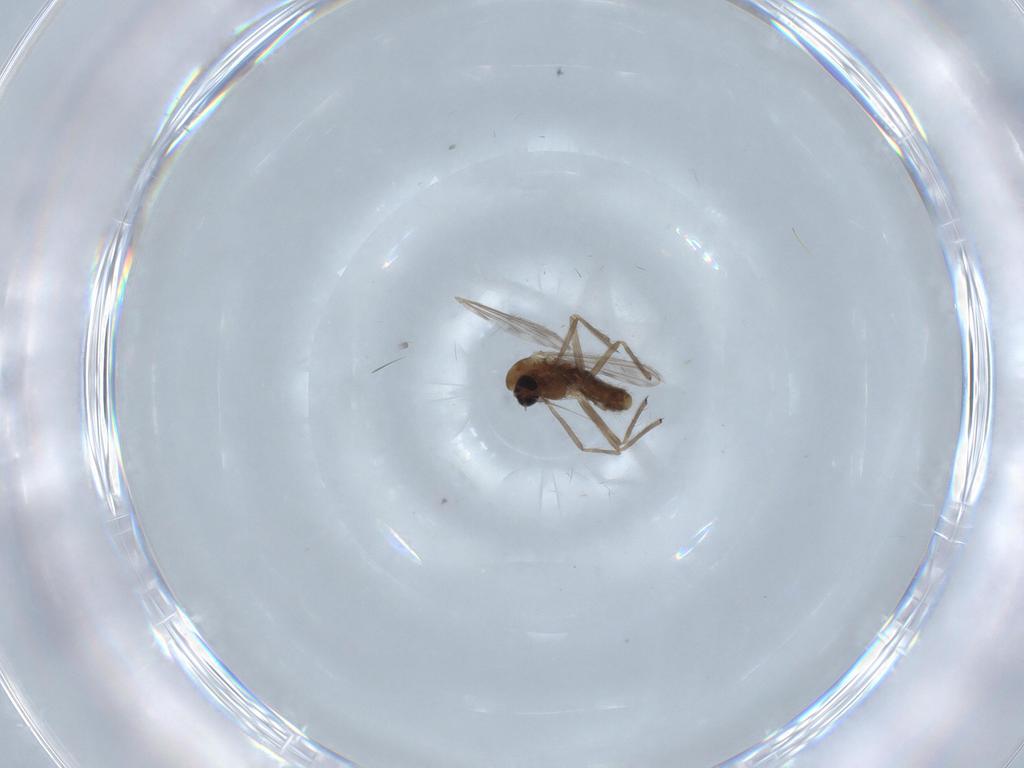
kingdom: Animalia
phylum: Arthropoda
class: Insecta
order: Diptera
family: Chironomidae
